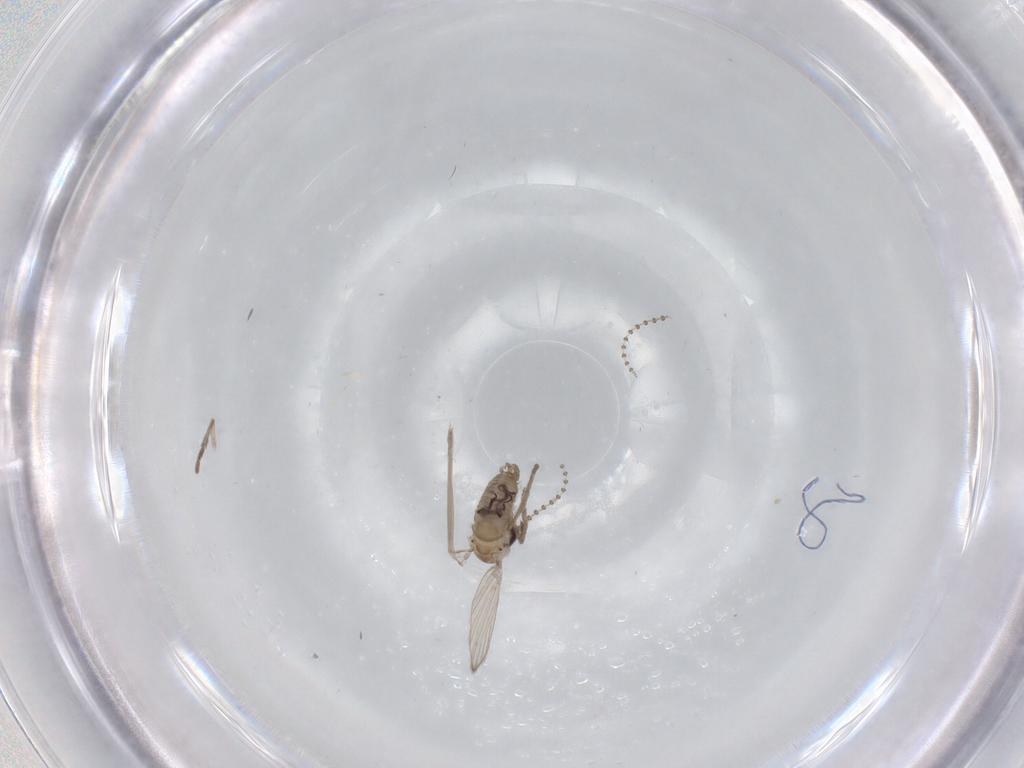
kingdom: Animalia
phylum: Arthropoda
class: Insecta
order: Diptera
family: Psychodidae
